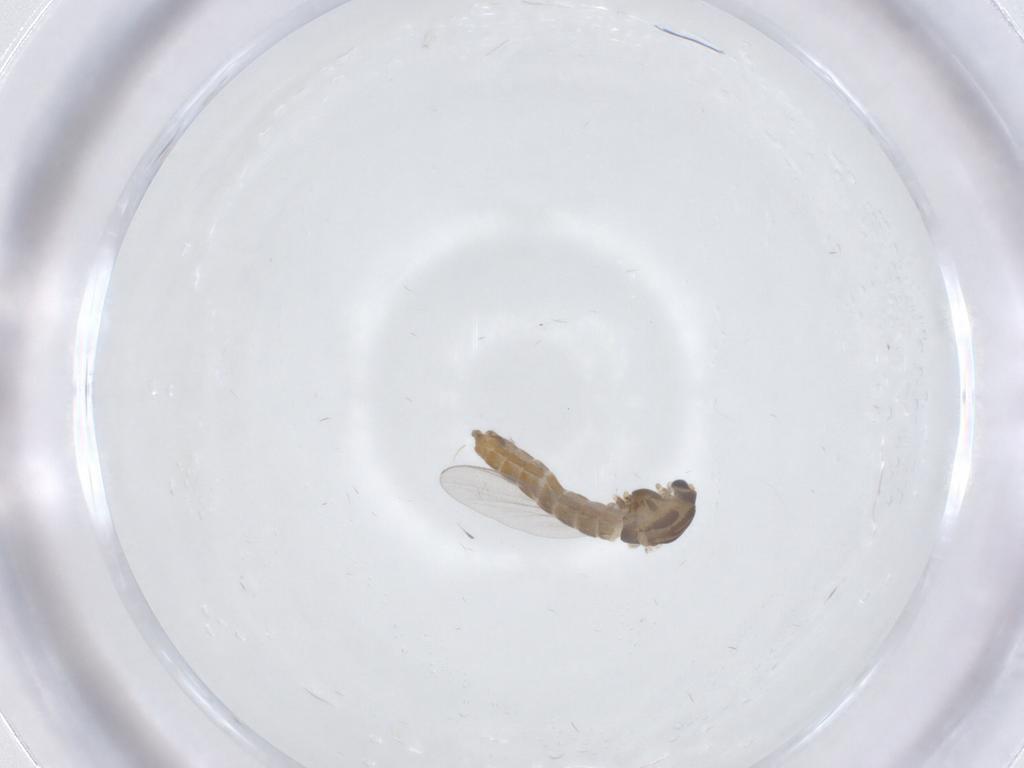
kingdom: Animalia
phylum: Arthropoda
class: Insecta
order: Diptera
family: Chironomidae
